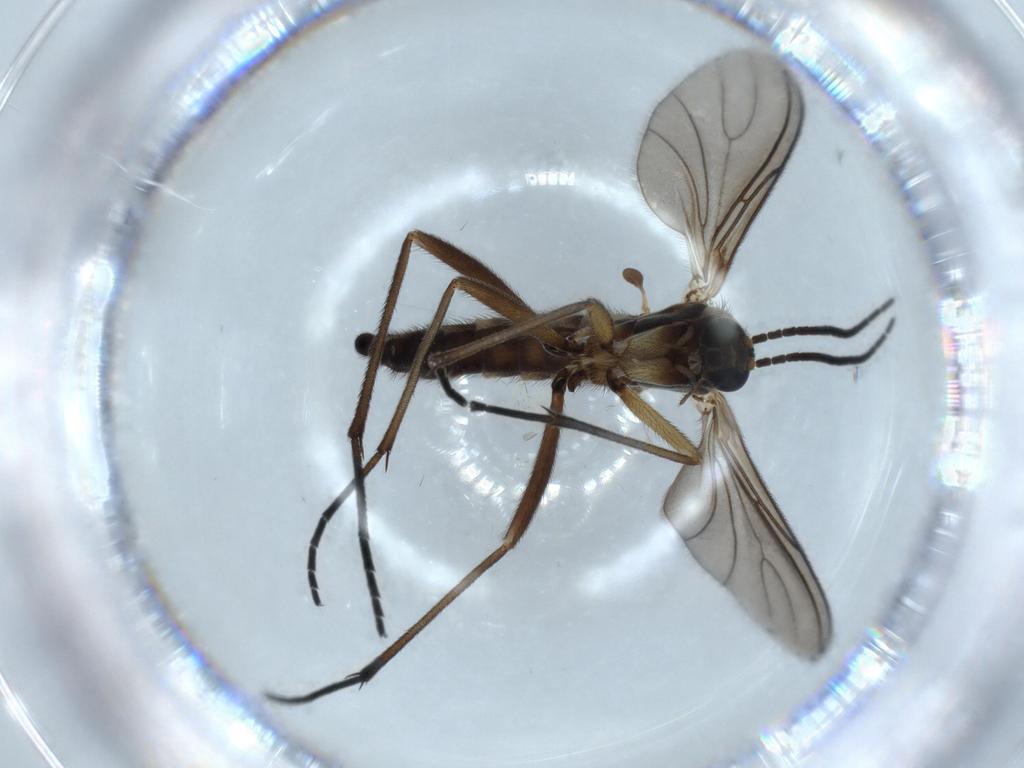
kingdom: Animalia
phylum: Arthropoda
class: Insecta
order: Diptera
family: Sciaridae
